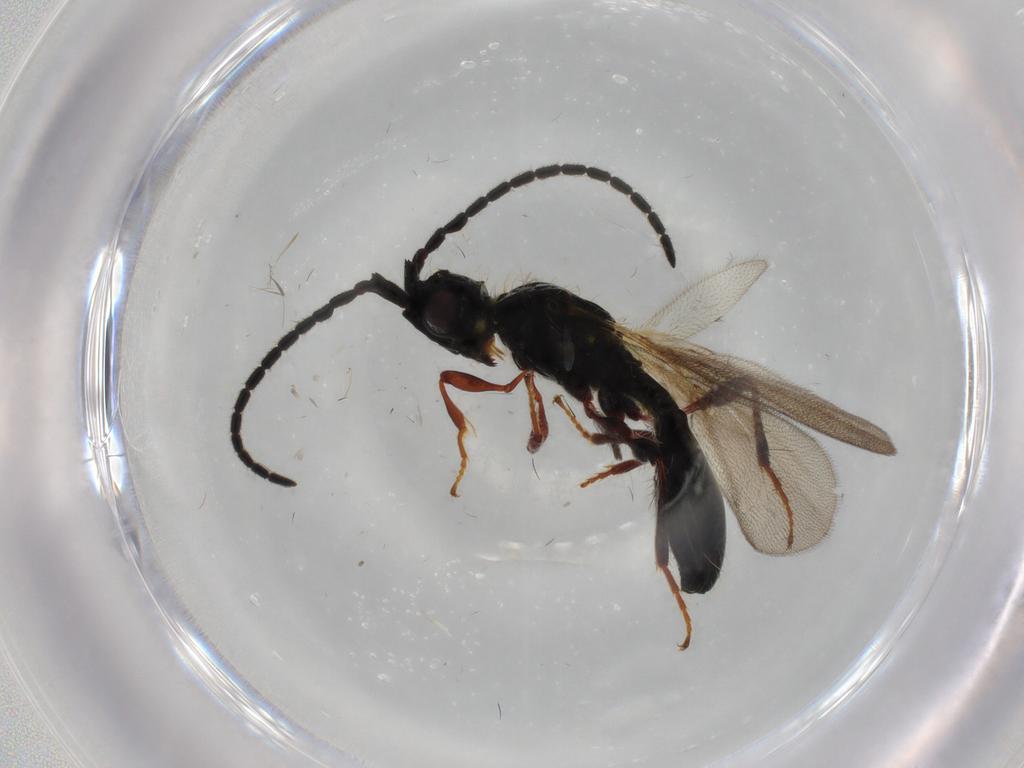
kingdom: Animalia
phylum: Arthropoda
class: Insecta
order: Hymenoptera
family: Diapriidae
